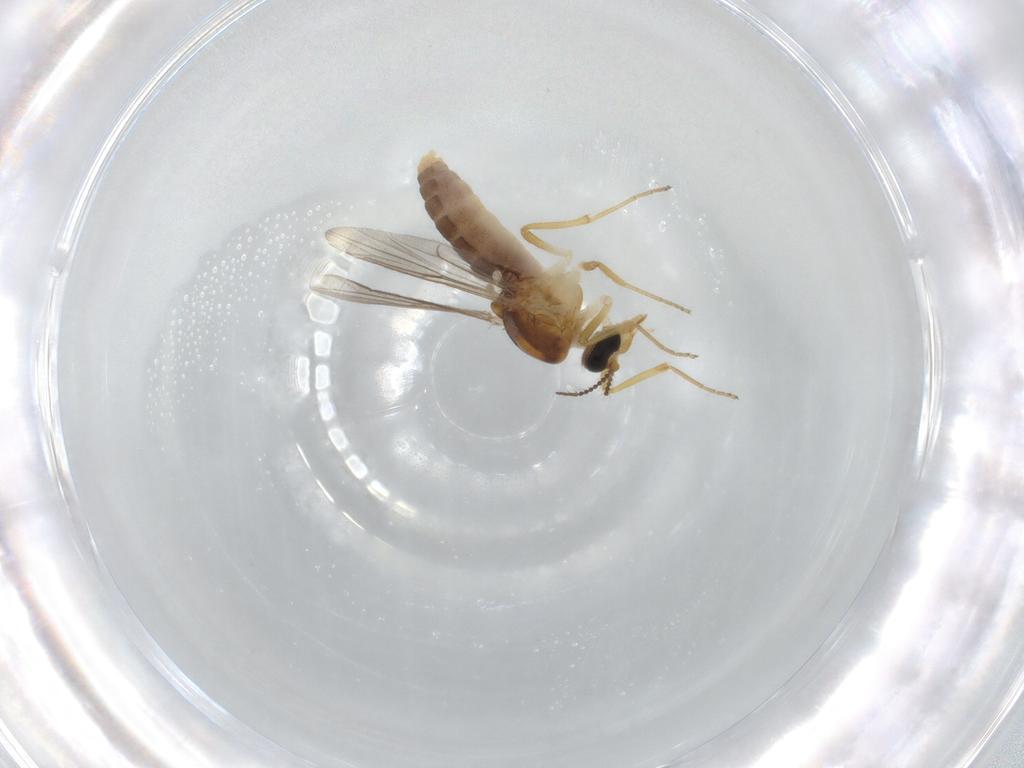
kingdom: Animalia
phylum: Arthropoda
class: Insecta
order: Diptera
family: Ceratopogonidae
